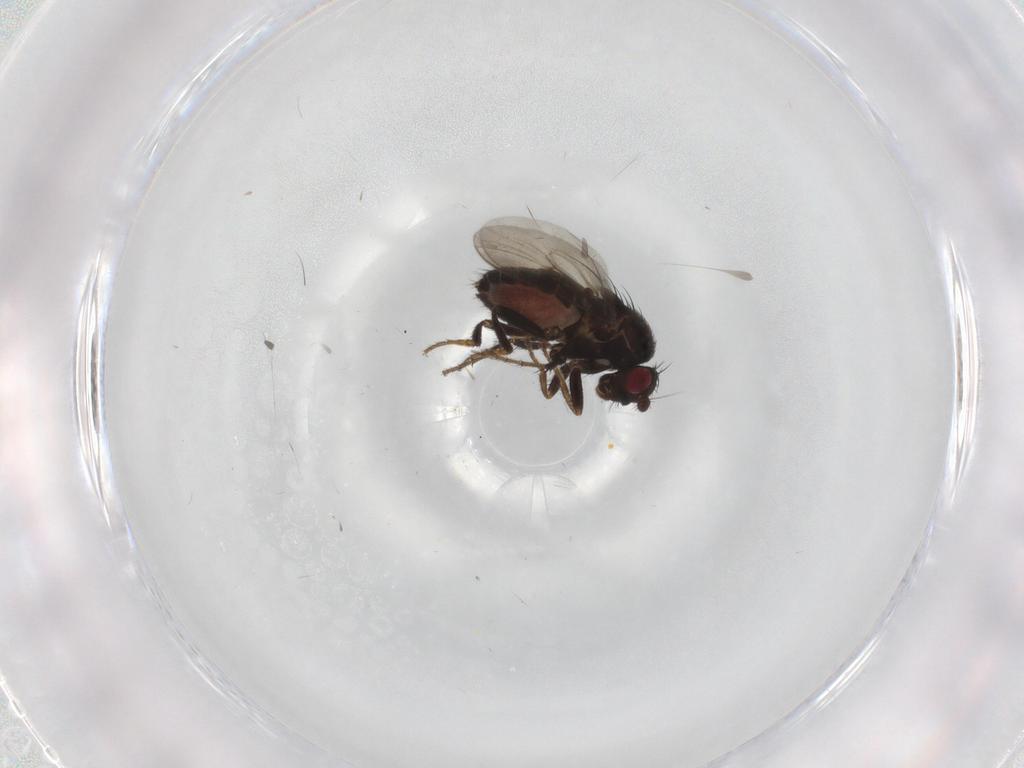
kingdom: Animalia
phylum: Arthropoda
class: Insecta
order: Diptera
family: Sphaeroceridae
